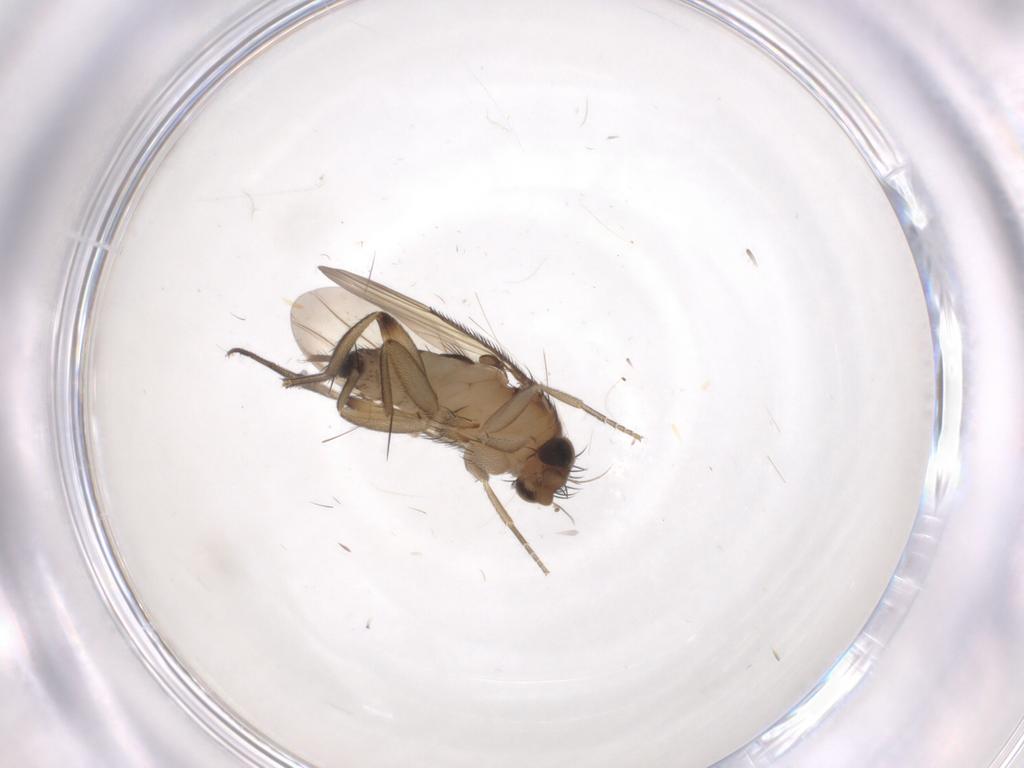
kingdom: Animalia
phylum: Arthropoda
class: Insecta
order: Diptera
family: Phoridae
